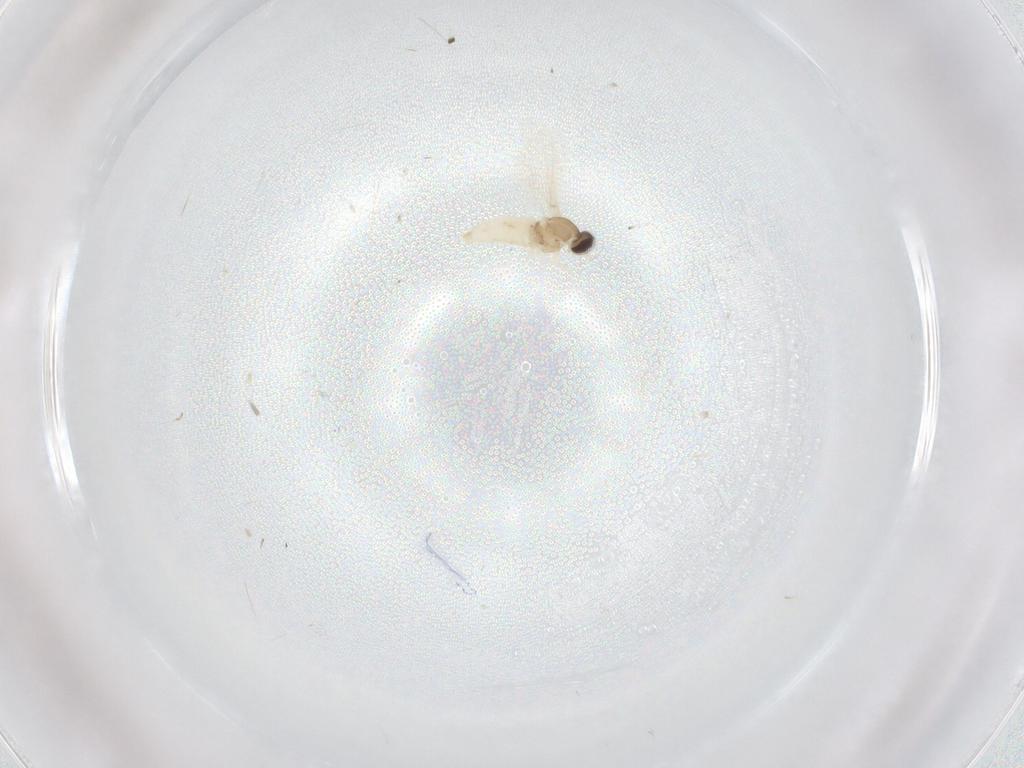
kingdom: Animalia
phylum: Arthropoda
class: Insecta
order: Diptera
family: Cecidomyiidae
